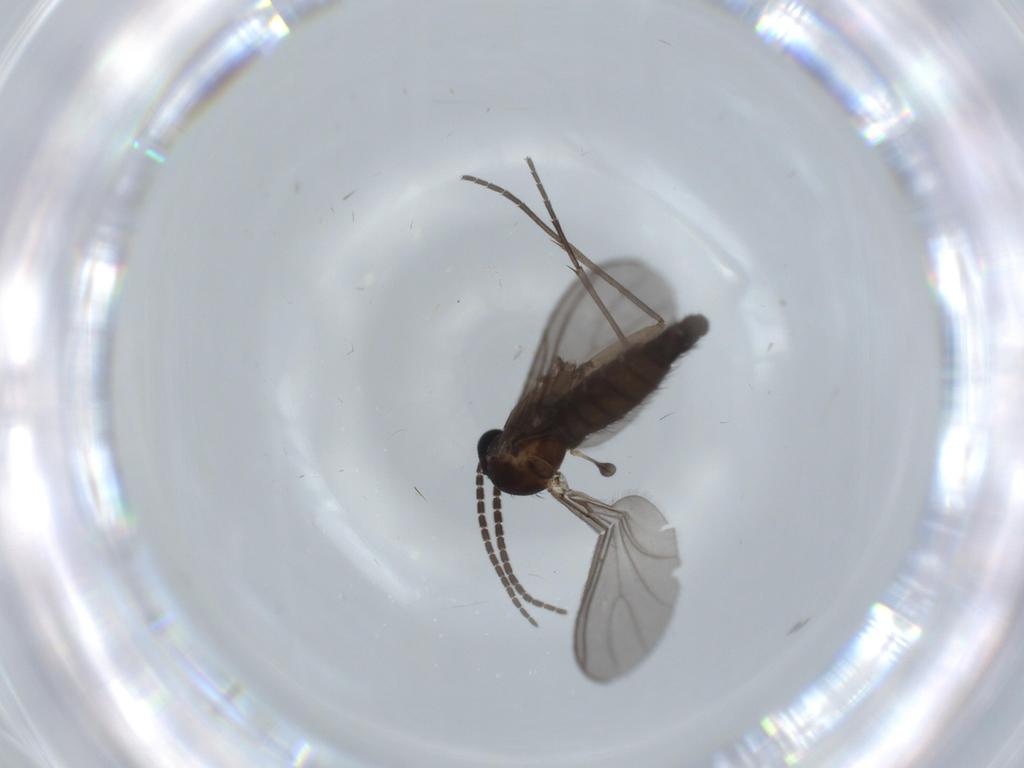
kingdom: Animalia
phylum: Arthropoda
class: Insecta
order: Diptera
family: Sciaridae
